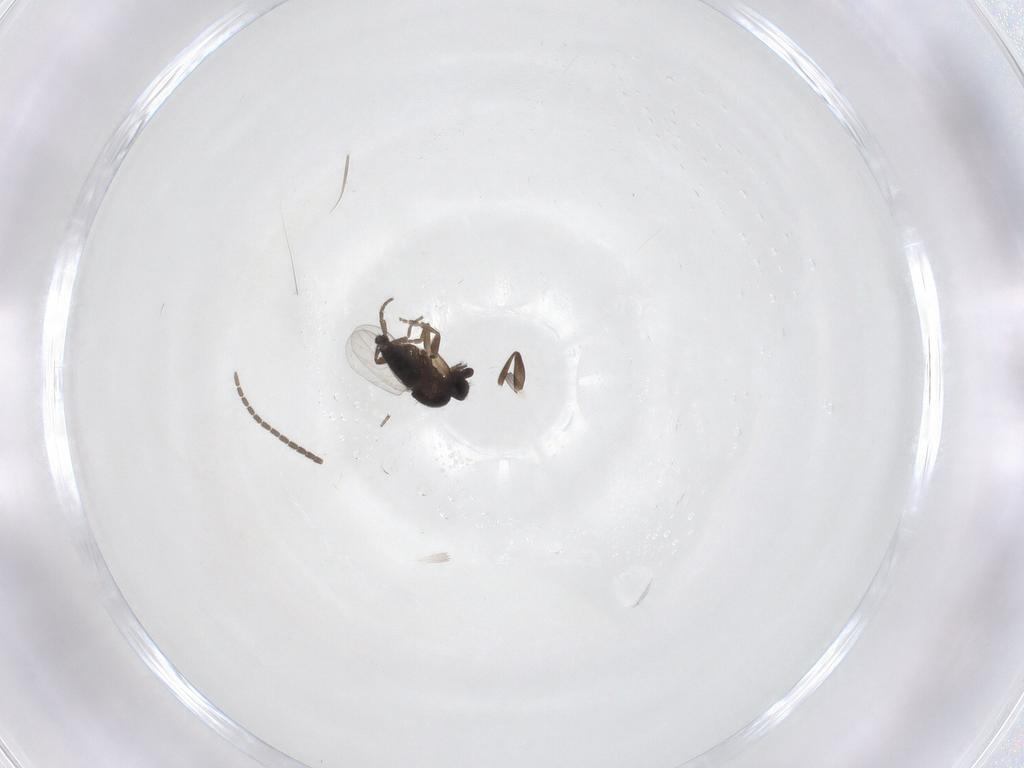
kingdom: Animalia
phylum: Arthropoda
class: Insecta
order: Diptera
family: Phoridae
